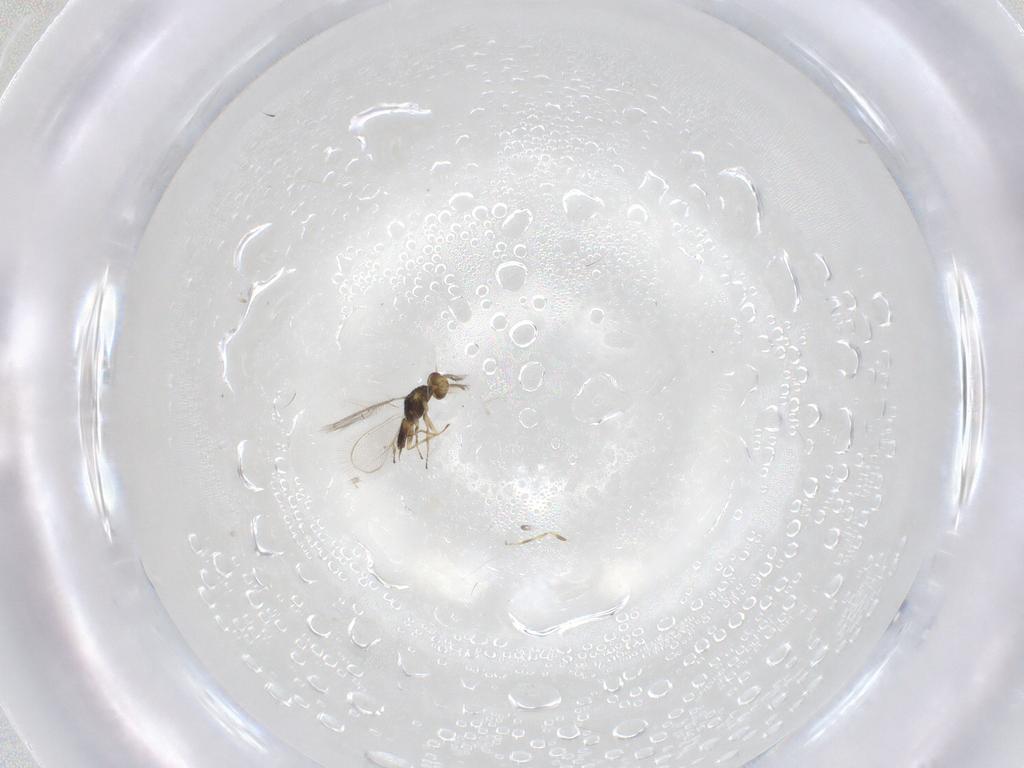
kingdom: Animalia
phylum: Arthropoda
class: Insecta
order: Hymenoptera
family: Eulophidae
